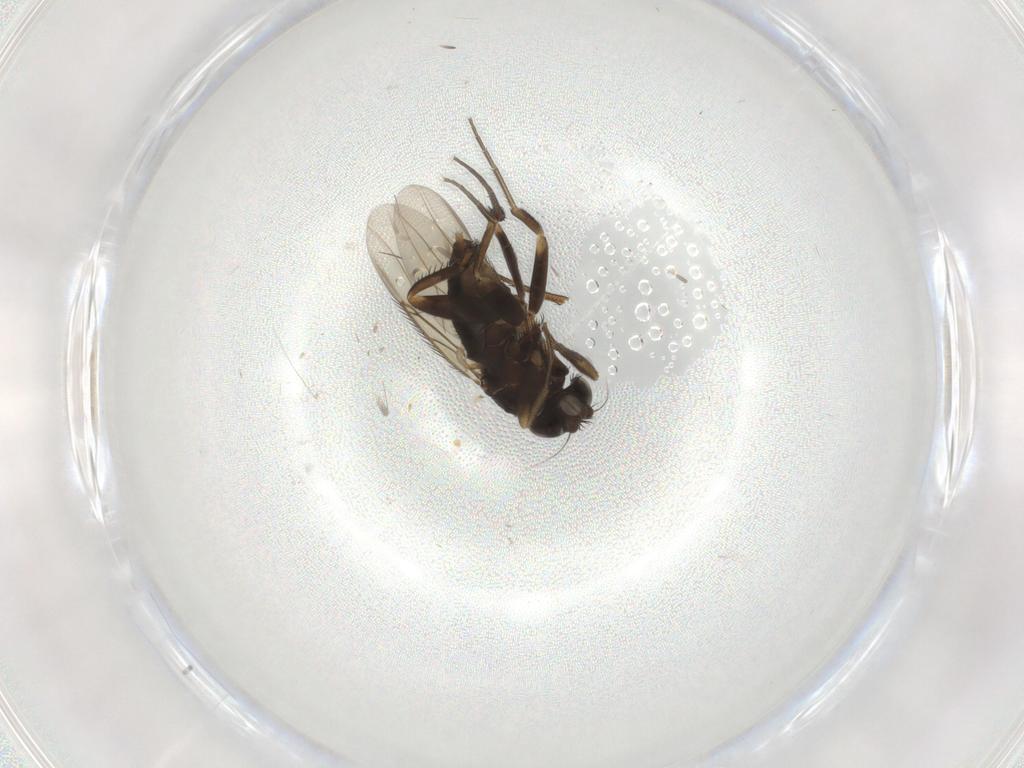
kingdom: Animalia
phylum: Arthropoda
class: Insecta
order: Diptera
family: Phoridae
